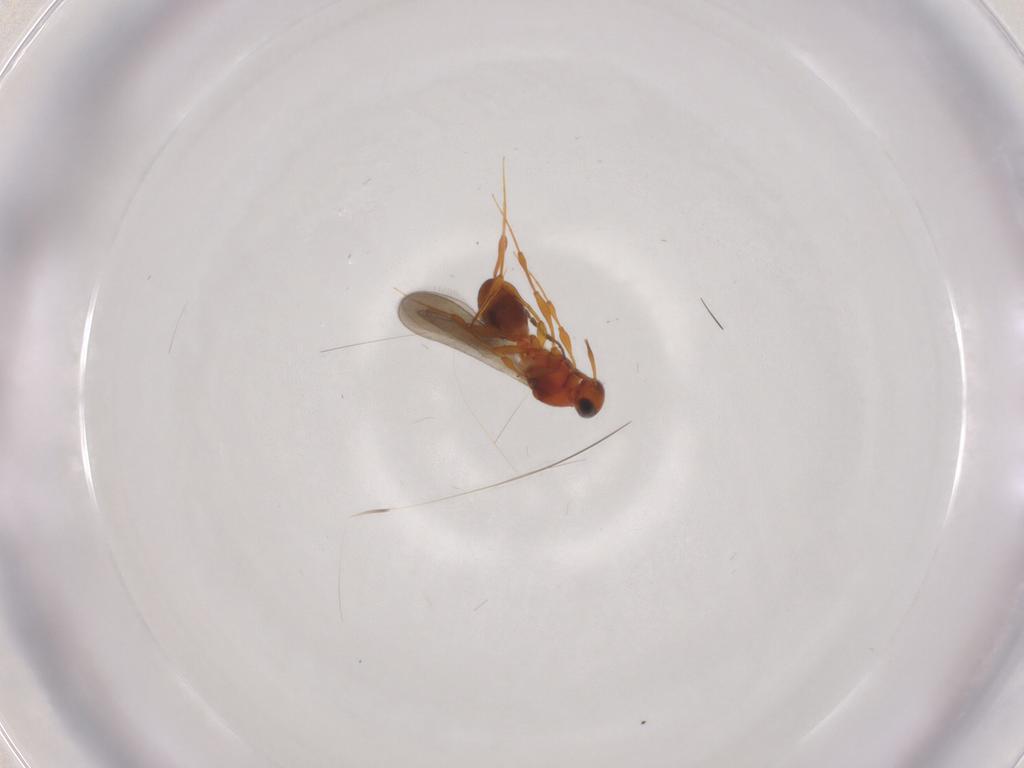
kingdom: Animalia
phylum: Arthropoda
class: Insecta
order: Hymenoptera
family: Platygastridae
